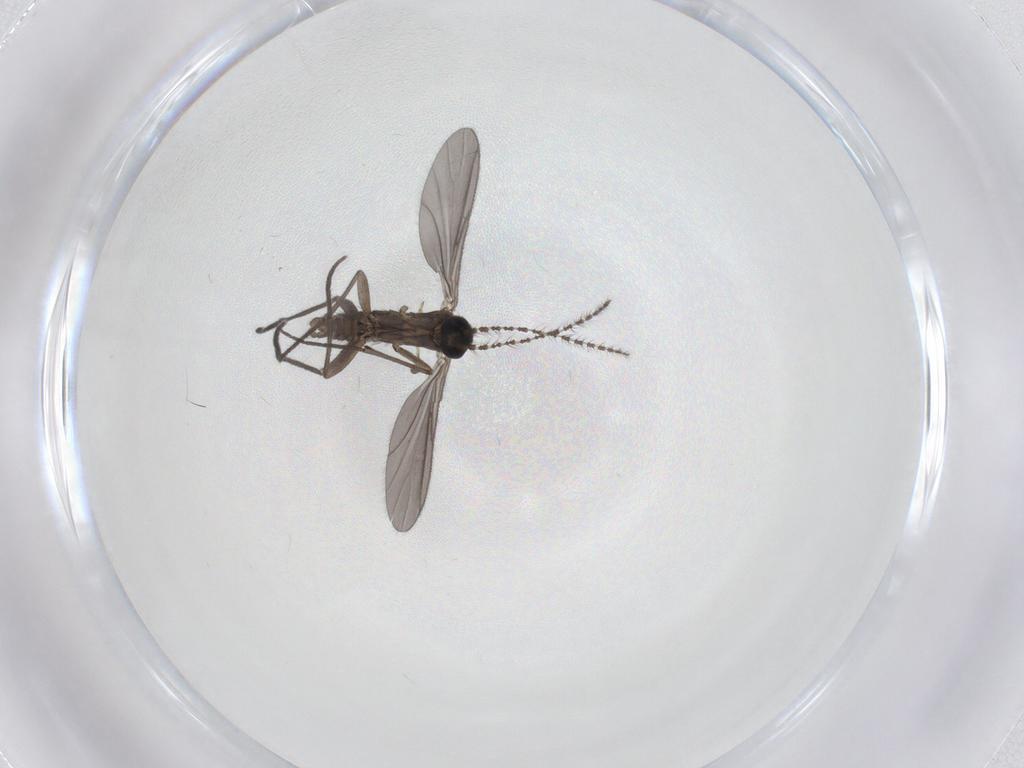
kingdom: Animalia
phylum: Arthropoda
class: Insecta
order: Diptera
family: Sciaridae
